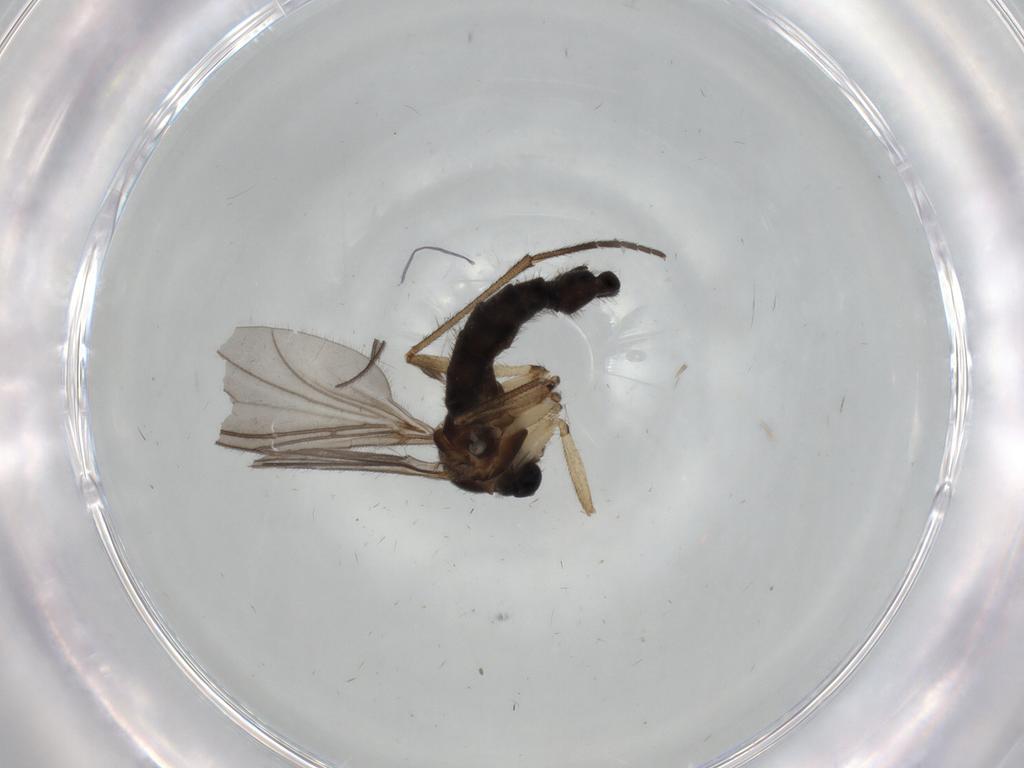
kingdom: Animalia
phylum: Arthropoda
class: Insecta
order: Diptera
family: Sciaridae
